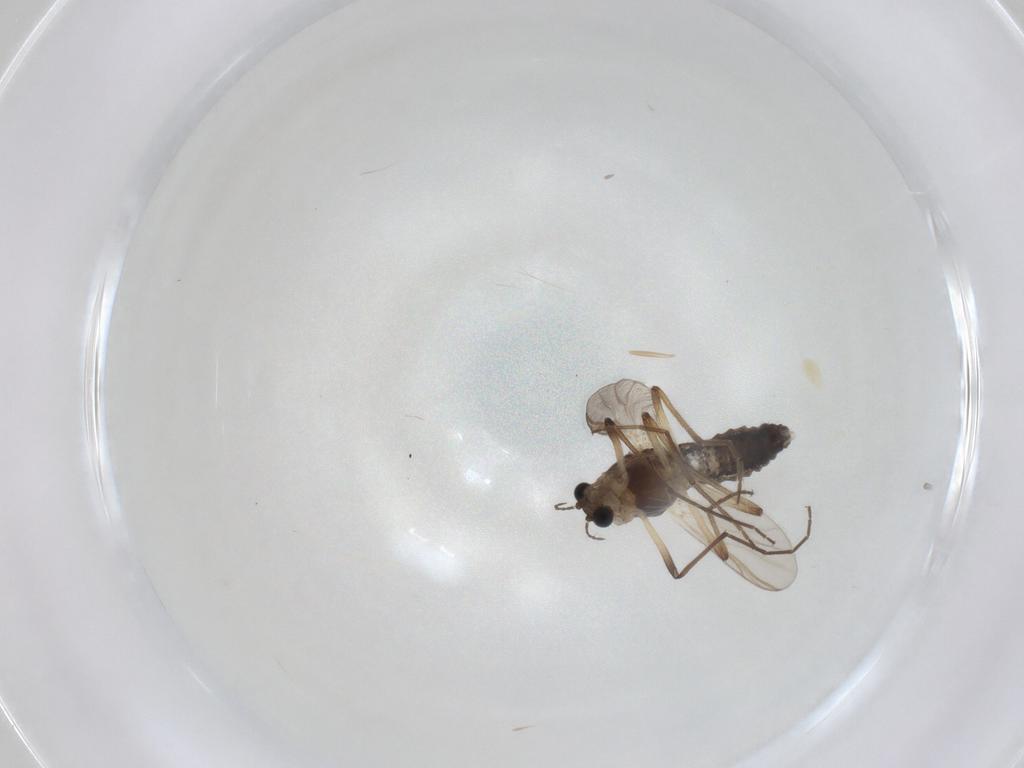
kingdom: Animalia
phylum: Arthropoda
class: Insecta
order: Diptera
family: Chironomidae
